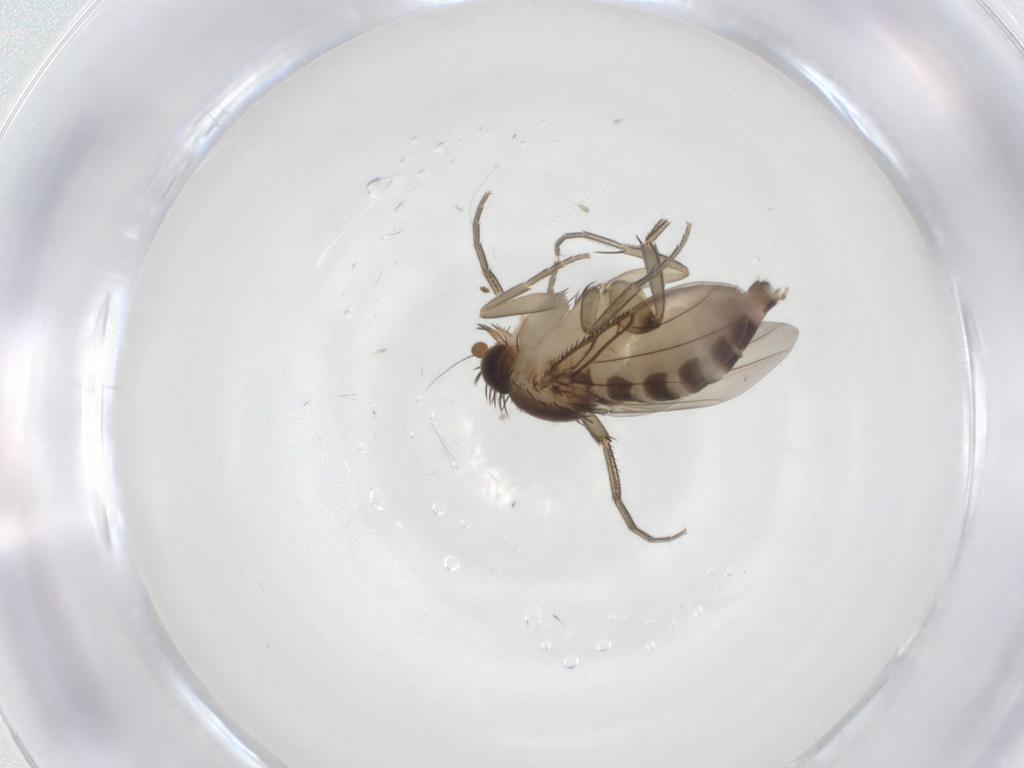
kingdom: Animalia
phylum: Arthropoda
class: Insecta
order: Diptera
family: Phoridae
